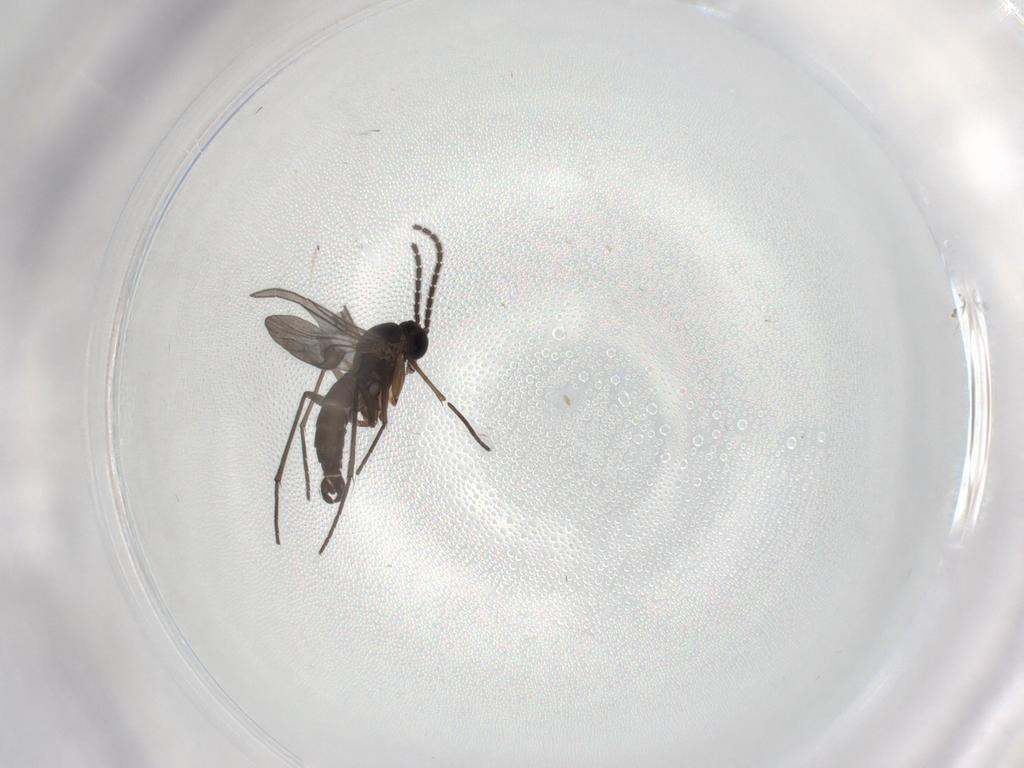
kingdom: Animalia
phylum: Arthropoda
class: Insecta
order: Diptera
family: Sciaridae
